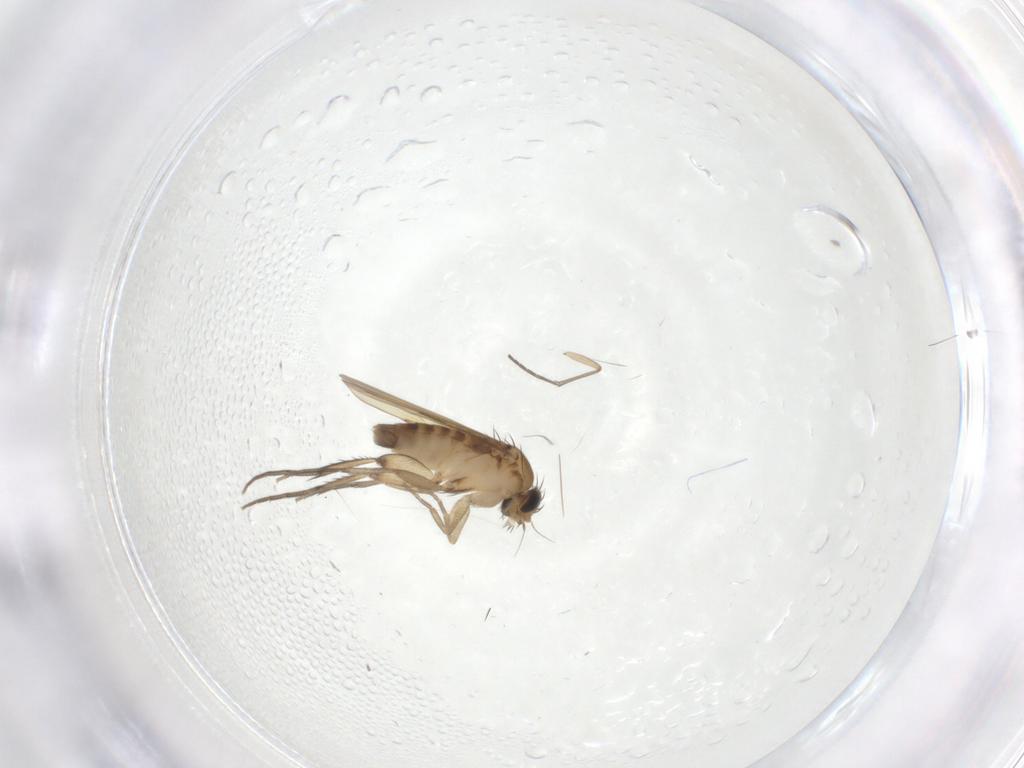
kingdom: Animalia
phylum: Arthropoda
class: Insecta
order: Diptera
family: Phoridae
